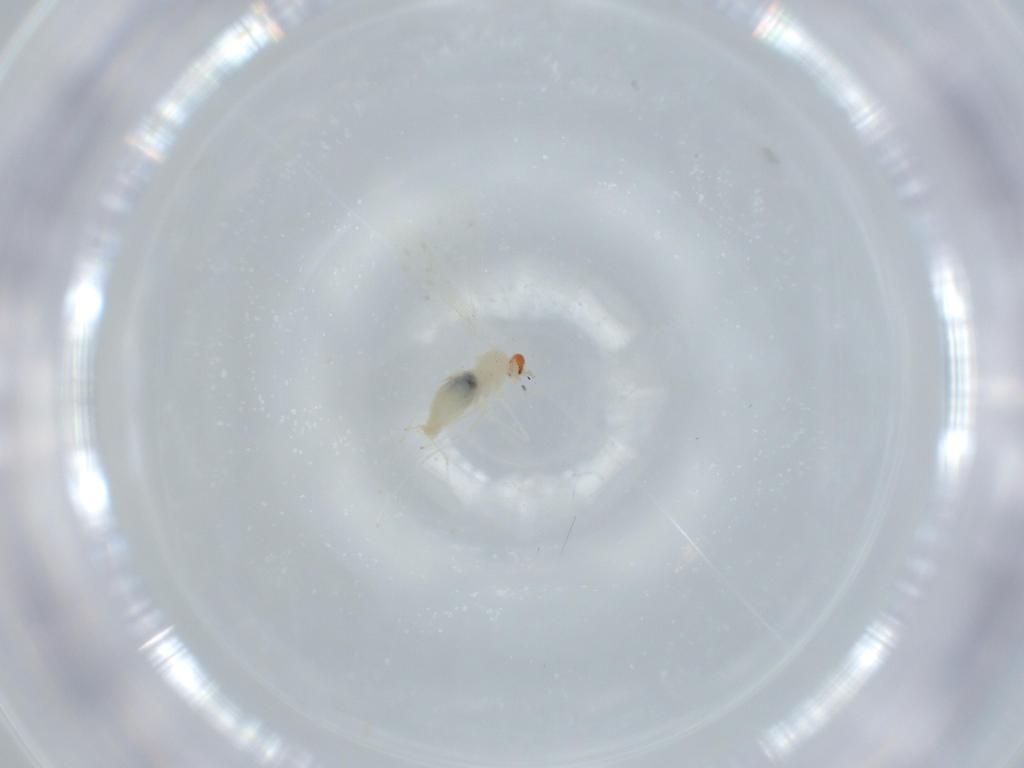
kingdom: Animalia
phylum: Arthropoda
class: Insecta
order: Diptera
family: Cecidomyiidae
